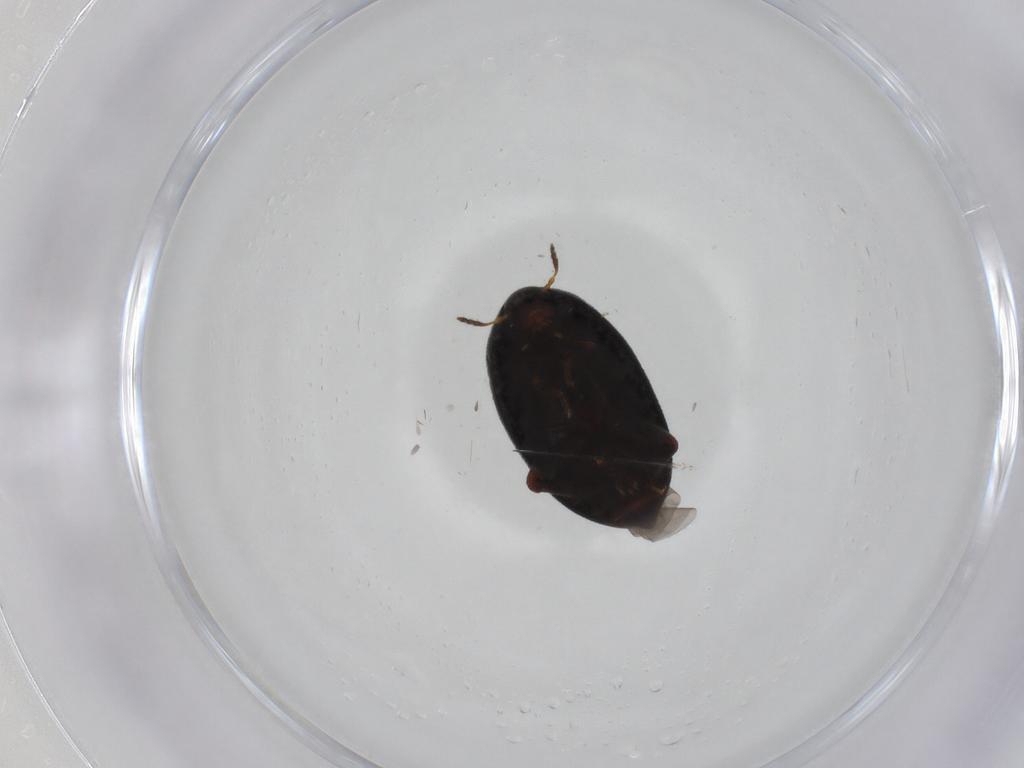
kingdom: Animalia
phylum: Arthropoda
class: Insecta
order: Coleoptera
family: Melandryidae
